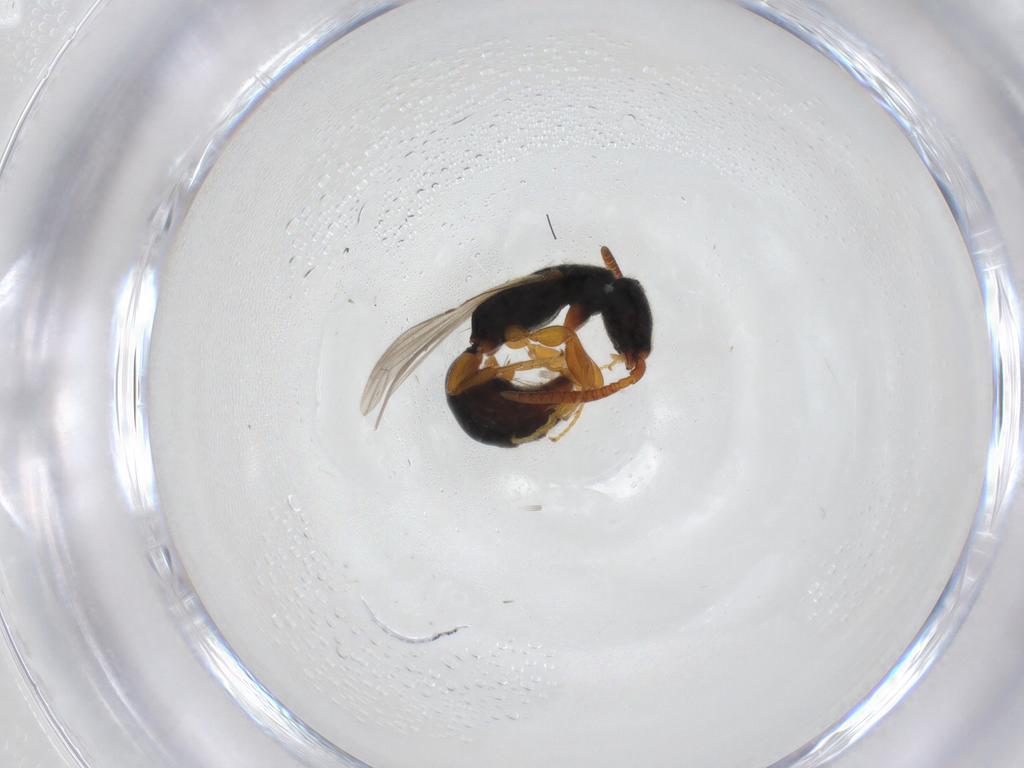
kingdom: Animalia
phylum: Arthropoda
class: Insecta
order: Hymenoptera
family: Bethylidae
